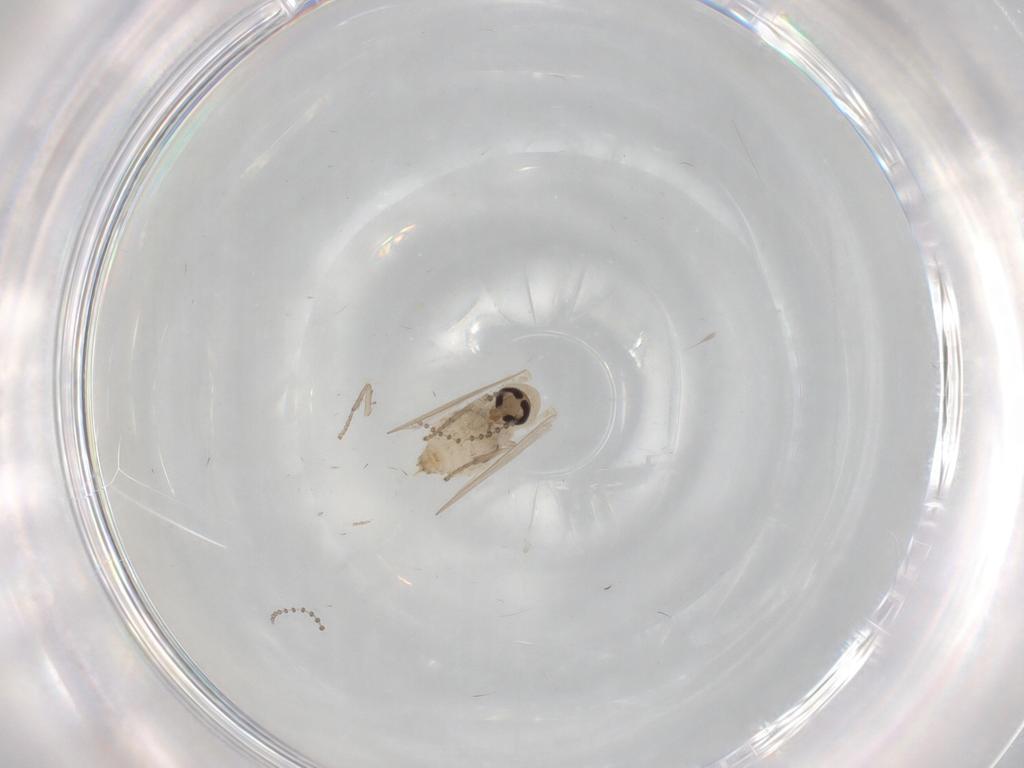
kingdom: Animalia
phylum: Arthropoda
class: Insecta
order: Diptera
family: Psychodidae
